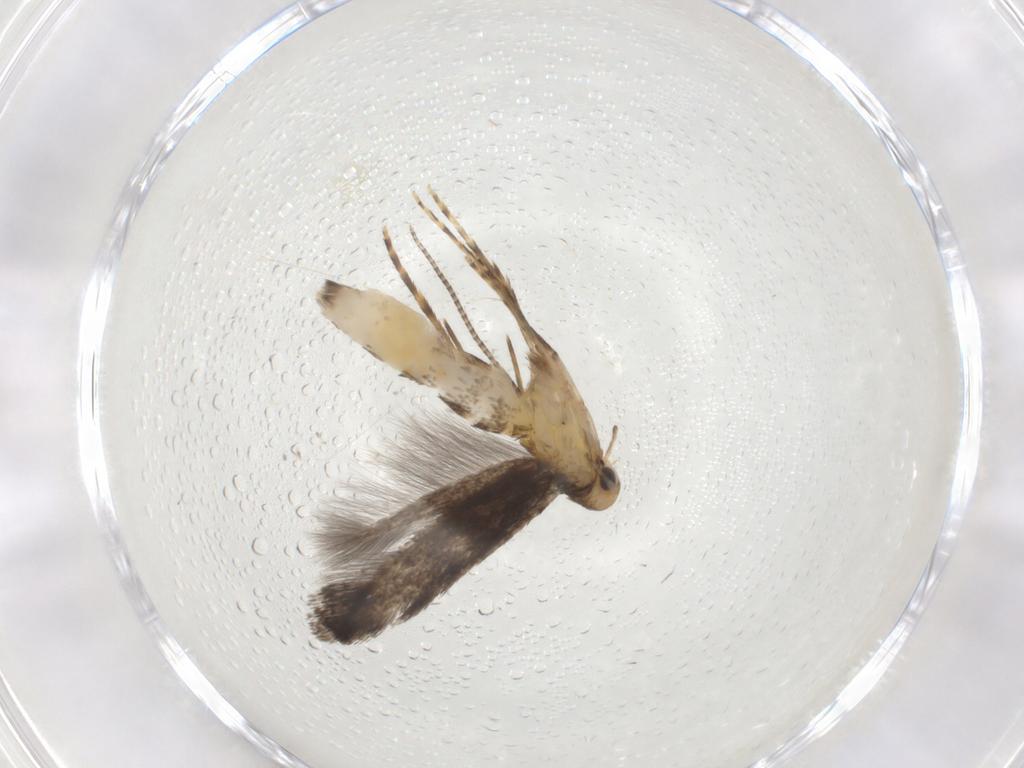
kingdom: Animalia
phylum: Arthropoda
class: Insecta
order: Lepidoptera
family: Gracillariidae
